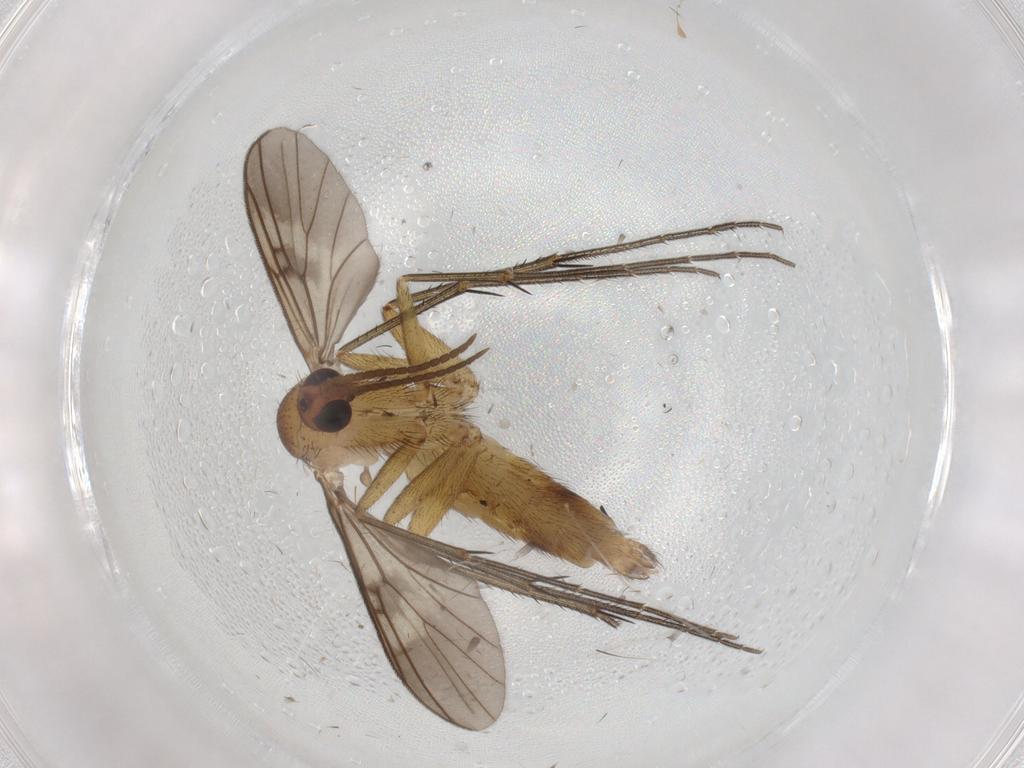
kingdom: Animalia
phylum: Arthropoda
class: Insecta
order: Diptera
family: Mycetophilidae
